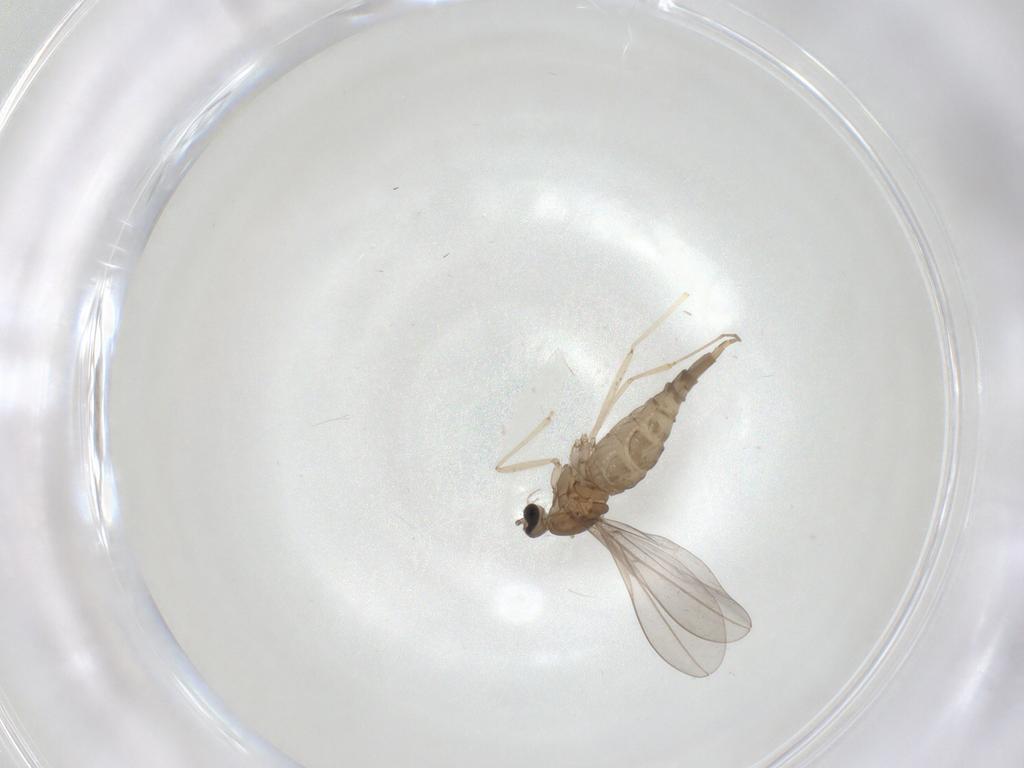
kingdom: Animalia
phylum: Arthropoda
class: Insecta
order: Diptera
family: Cecidomyiidae
